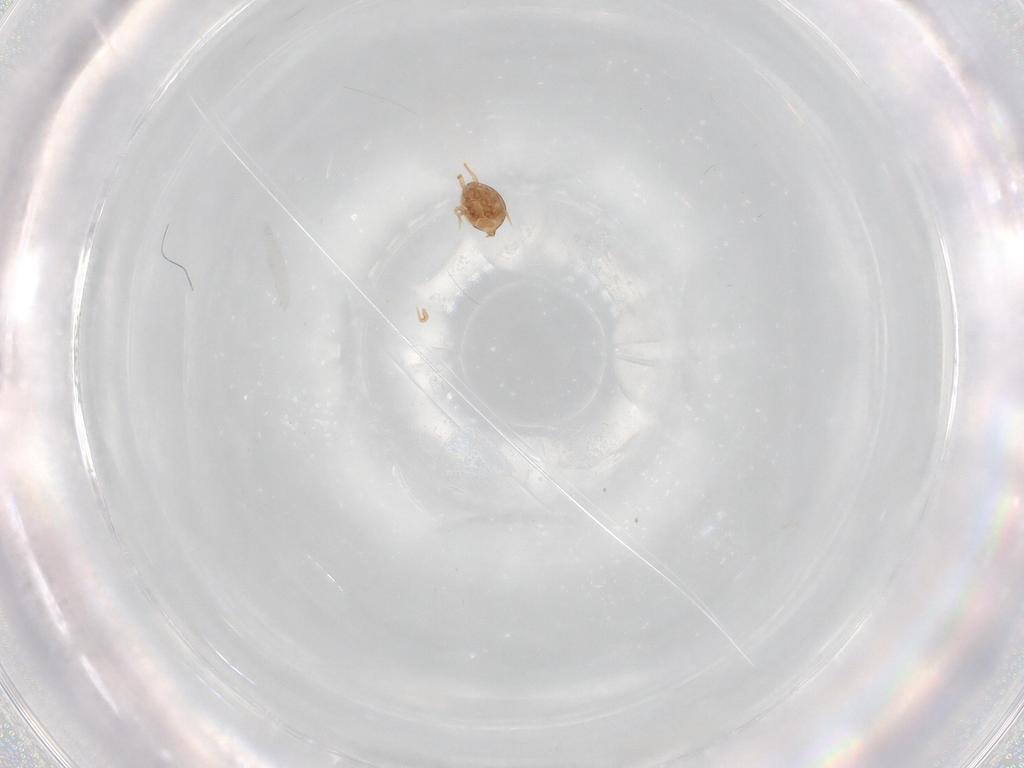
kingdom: Animalia
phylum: Arthropoda
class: Arachnida
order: Mesostigmata
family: Polyaspididae
